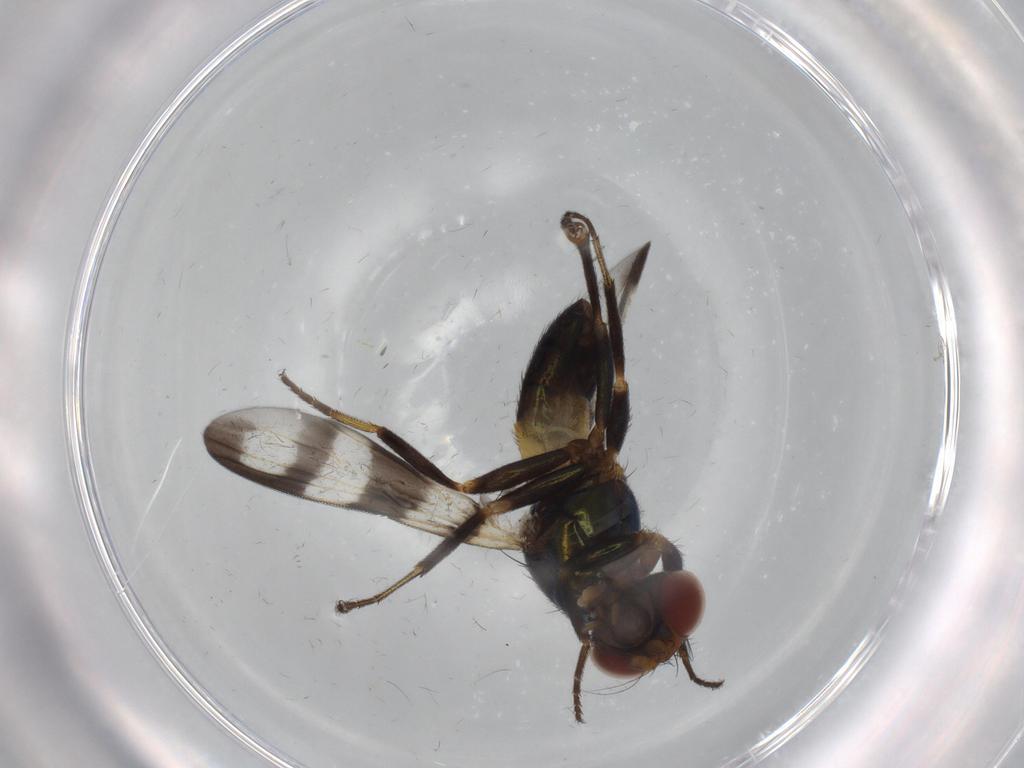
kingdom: Animalia
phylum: Arthropoda
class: Insecta
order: Diptera
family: Ulidiidae
